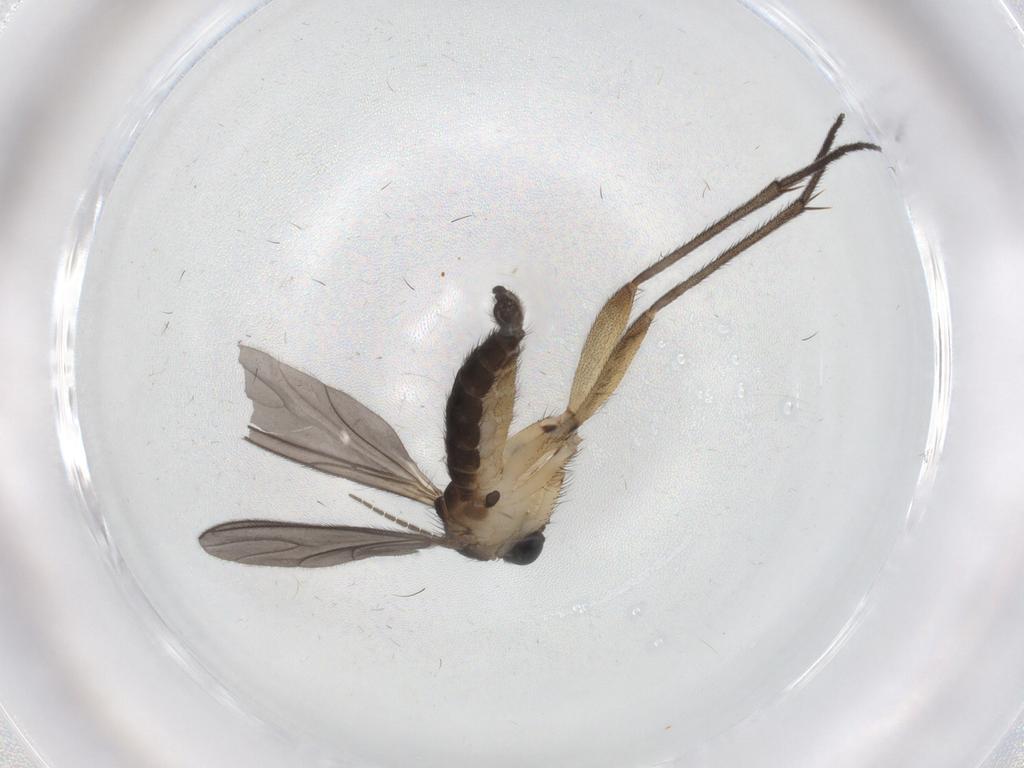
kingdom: Animalia
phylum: Arthropoda
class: Insecta
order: Diptera
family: Sciaridae
